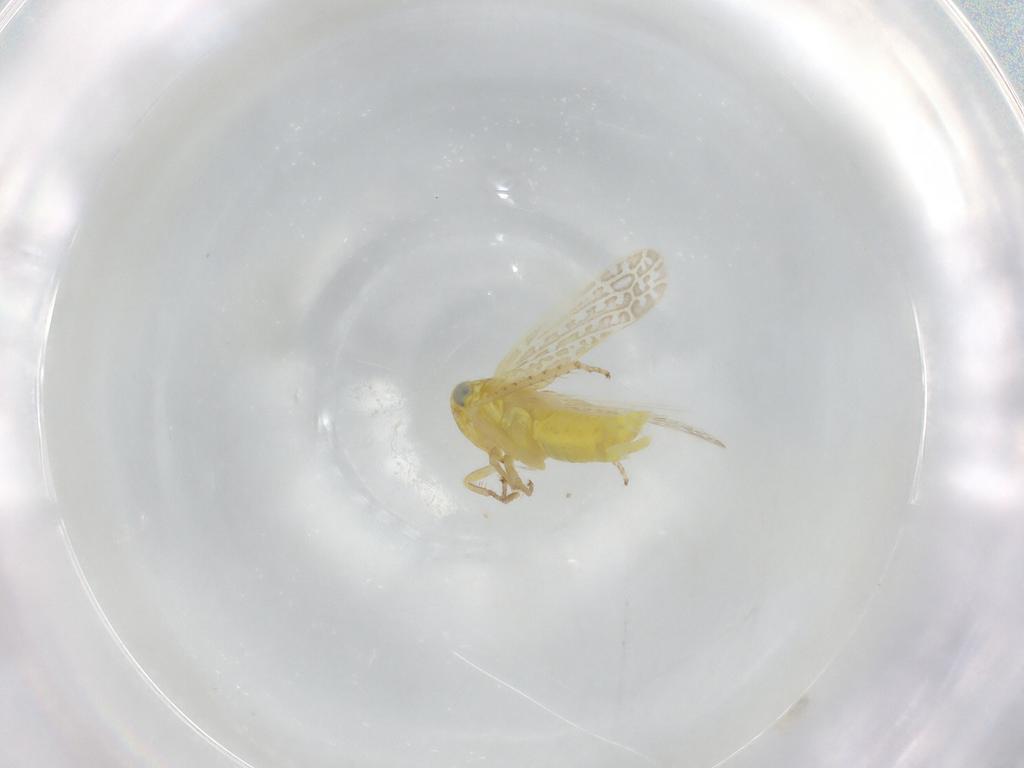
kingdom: Animalia
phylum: Arthropoda
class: Insecta
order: Hemiptera
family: Cicadellidae
